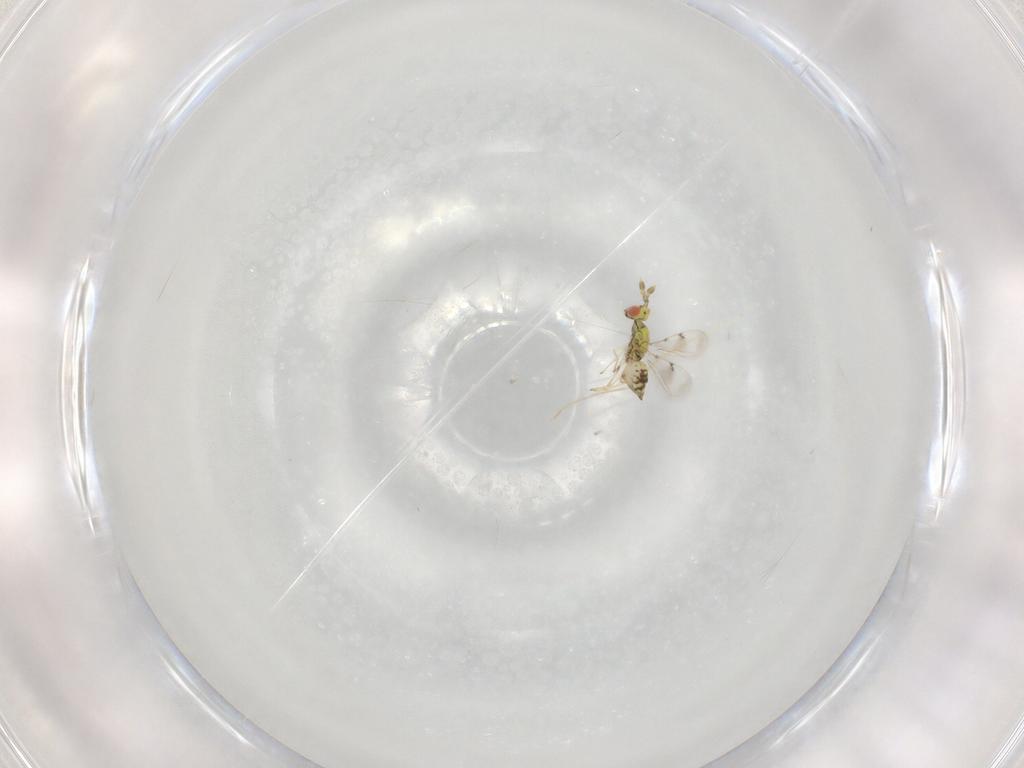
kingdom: Animalia
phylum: Arthropoda
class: Insecta
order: Hymenoptera
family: Eulophidae
